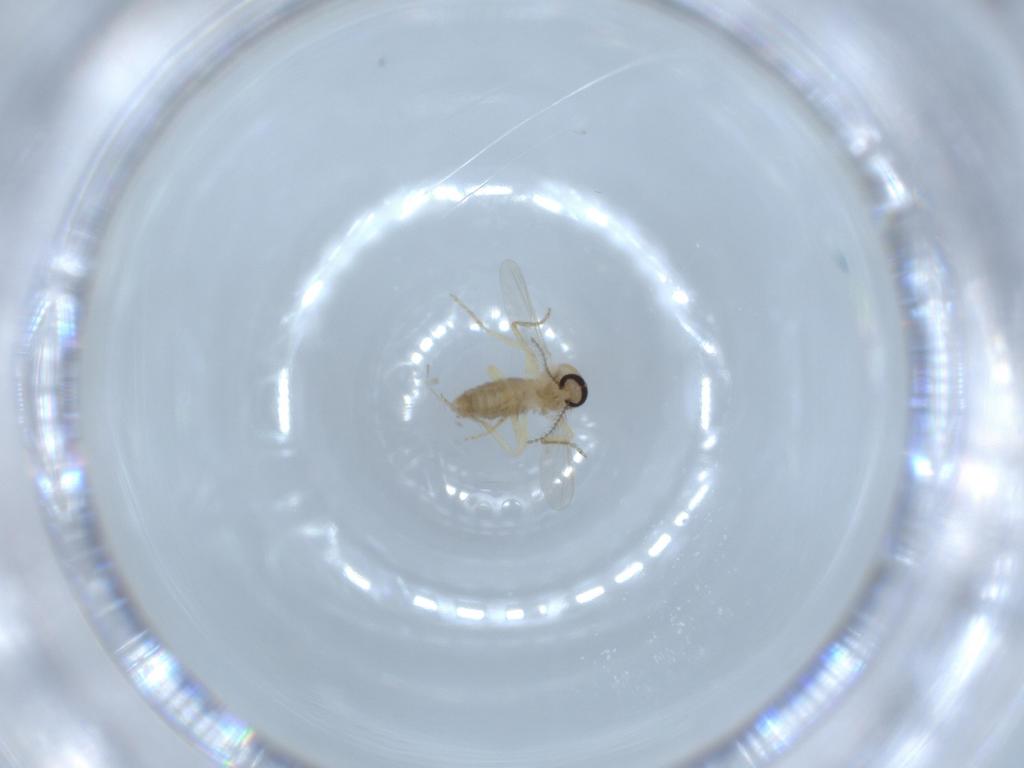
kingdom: Animalia
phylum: Arthropoda
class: Insecta
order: Diptera
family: Ceratopogonidae
